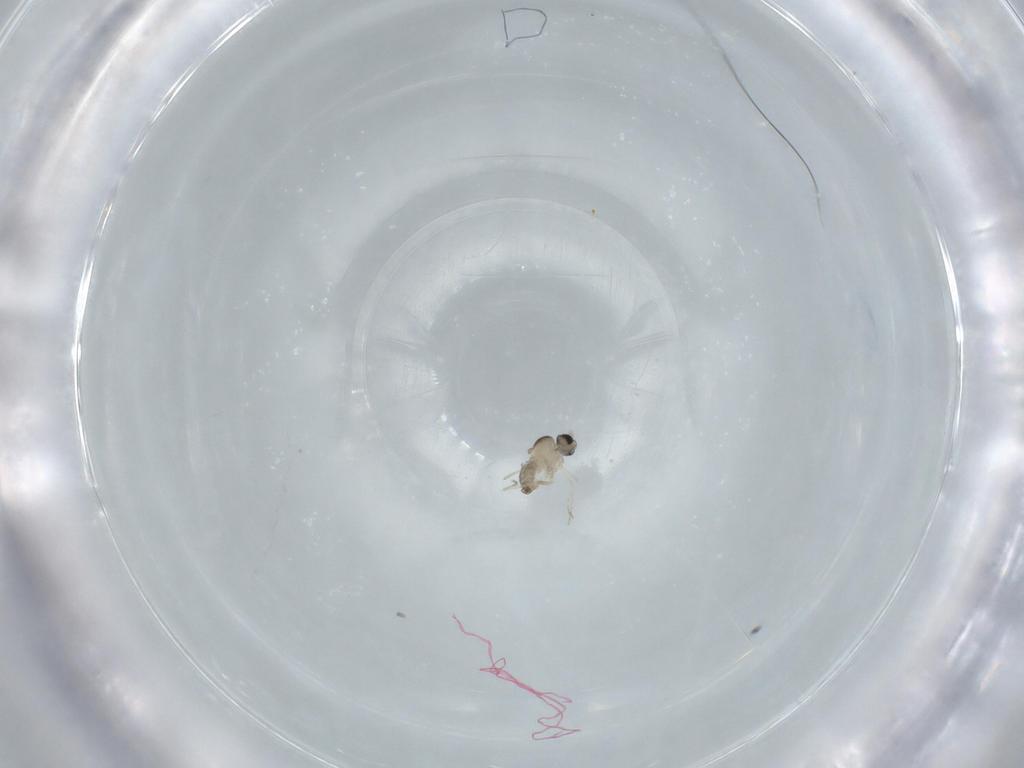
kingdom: Animalia
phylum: Arthropoda
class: Insecta
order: Diptera
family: Cecidomyiidae
